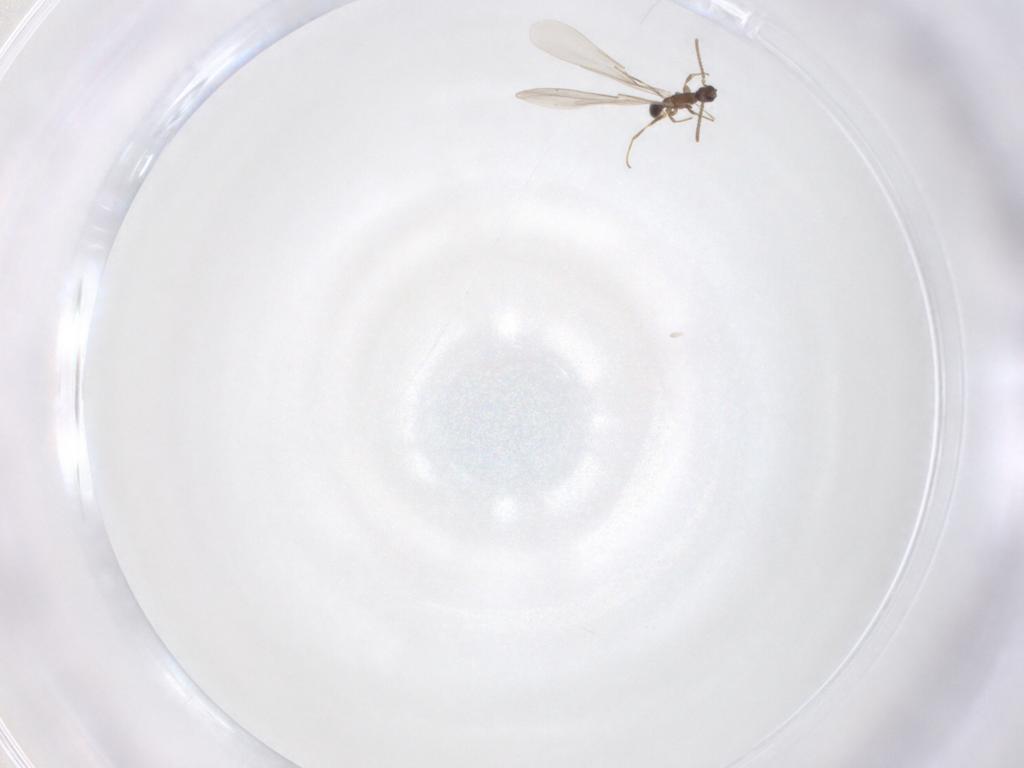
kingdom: Animalia
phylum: Arthropoda
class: Insecta
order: Hymenoptera
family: Formicidae
